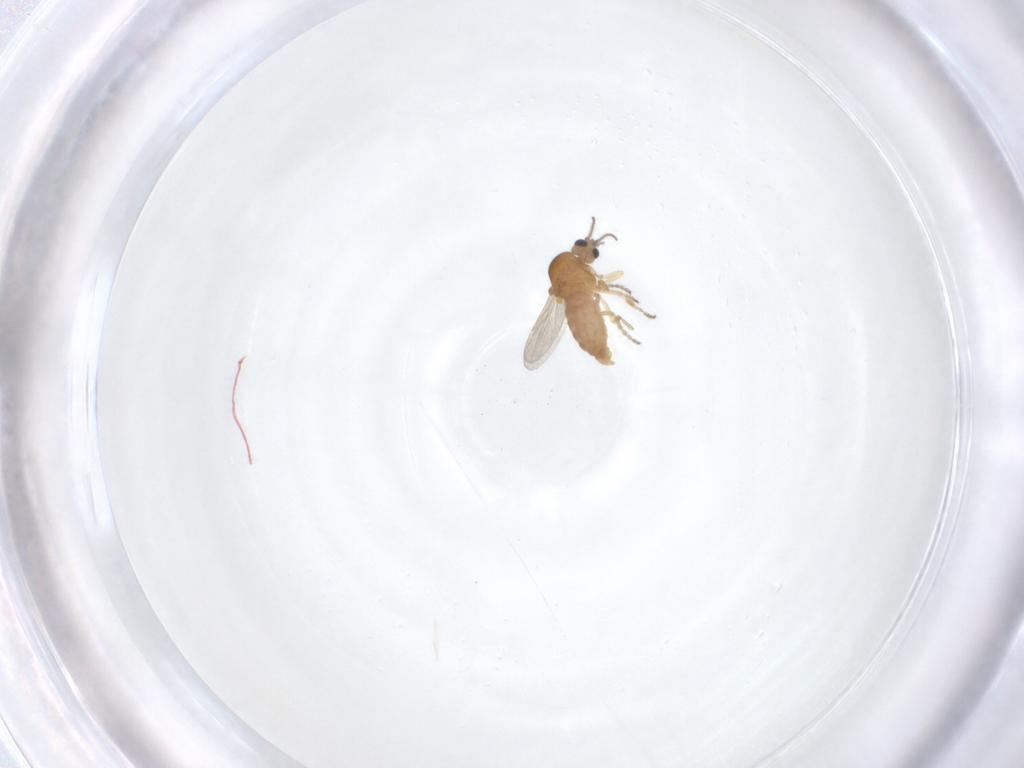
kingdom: Animalia
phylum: Arthropoda
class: Insecta
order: Diptera
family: Ceratopogonidae
